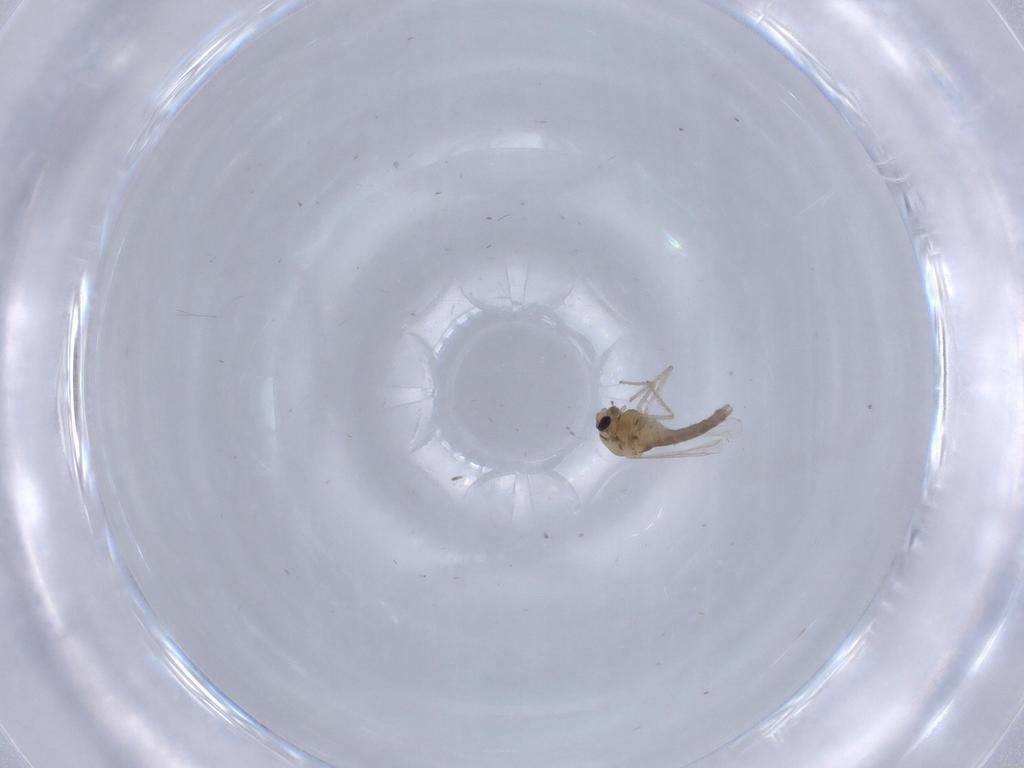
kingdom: Animalia
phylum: Arthropoda
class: Insecta
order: Diptera
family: Chironomidae
